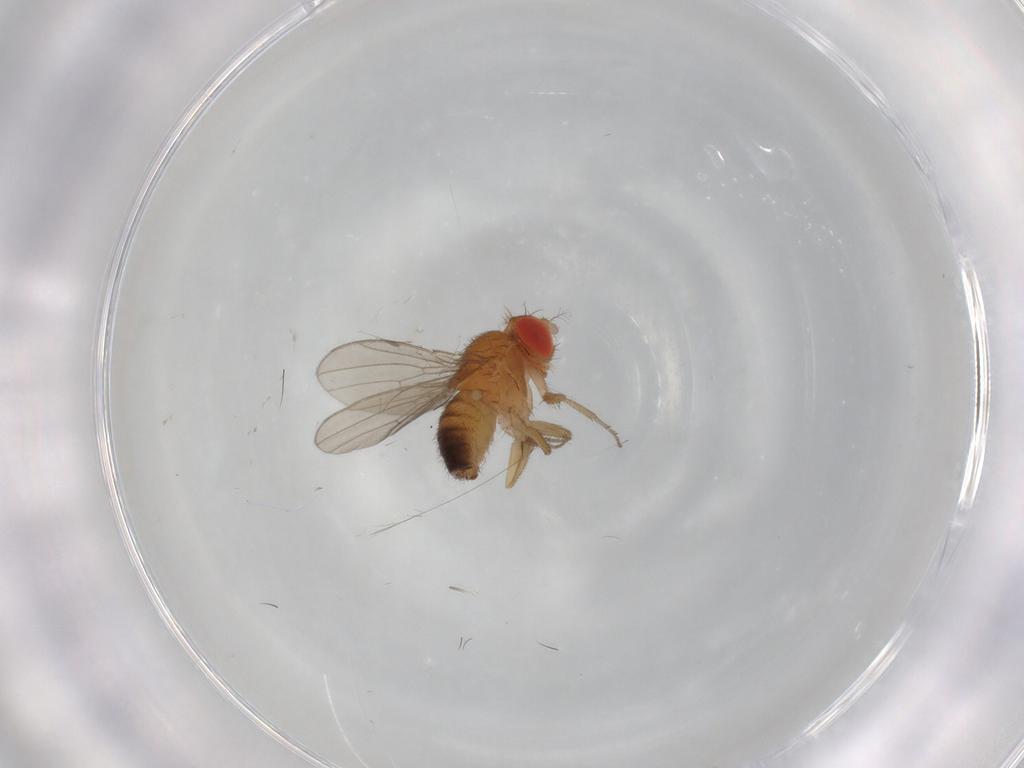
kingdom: Animalia
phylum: Arthropoda
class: Insecta
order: Diptera
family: Drosophilidae
